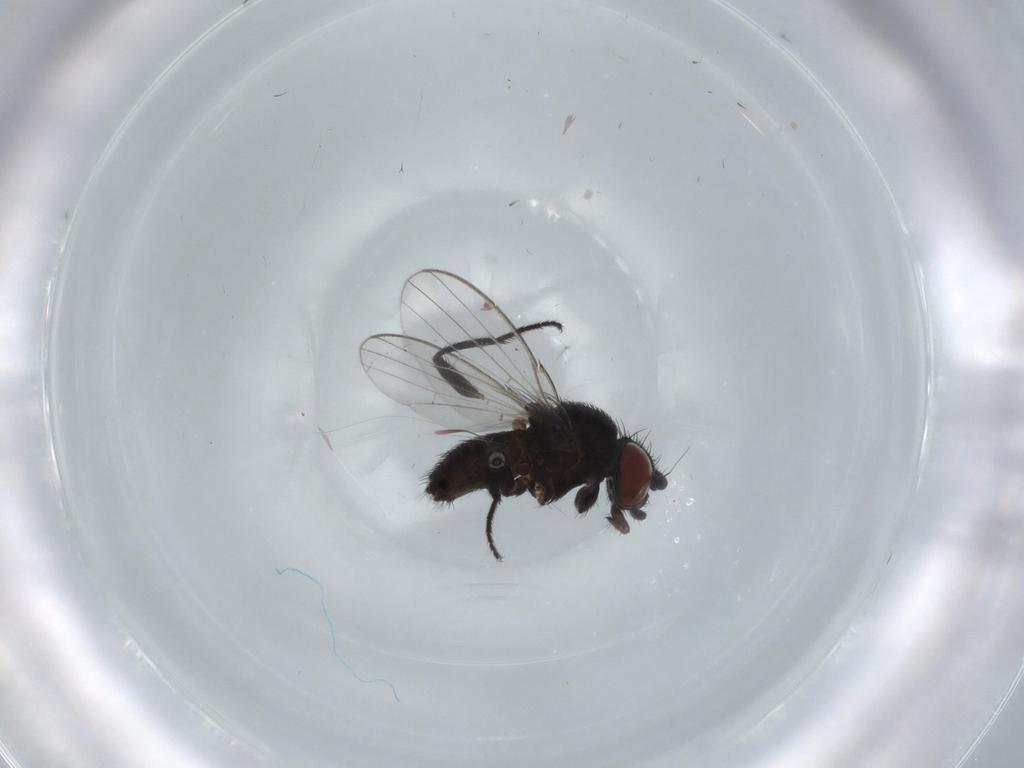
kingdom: Animalia
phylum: Arthropoda
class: Insecta
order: Diptera
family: Milichiidae
